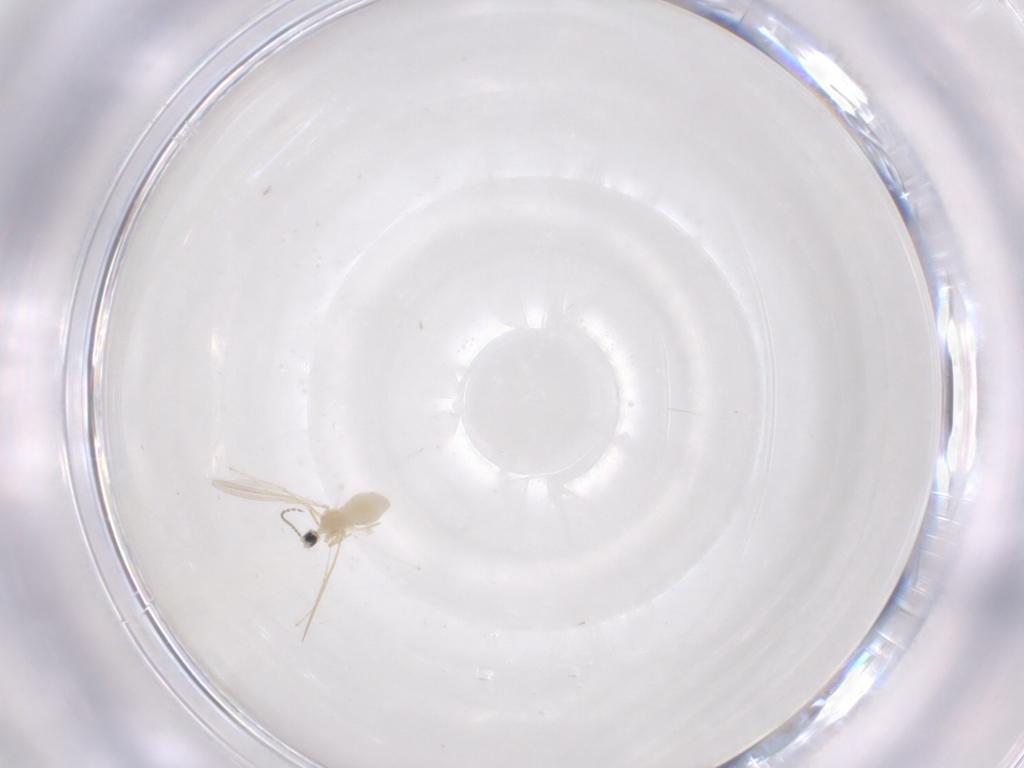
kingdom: Animalia
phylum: Arthropoda
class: Insecta
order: Diptera
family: Cecidomyiidae
